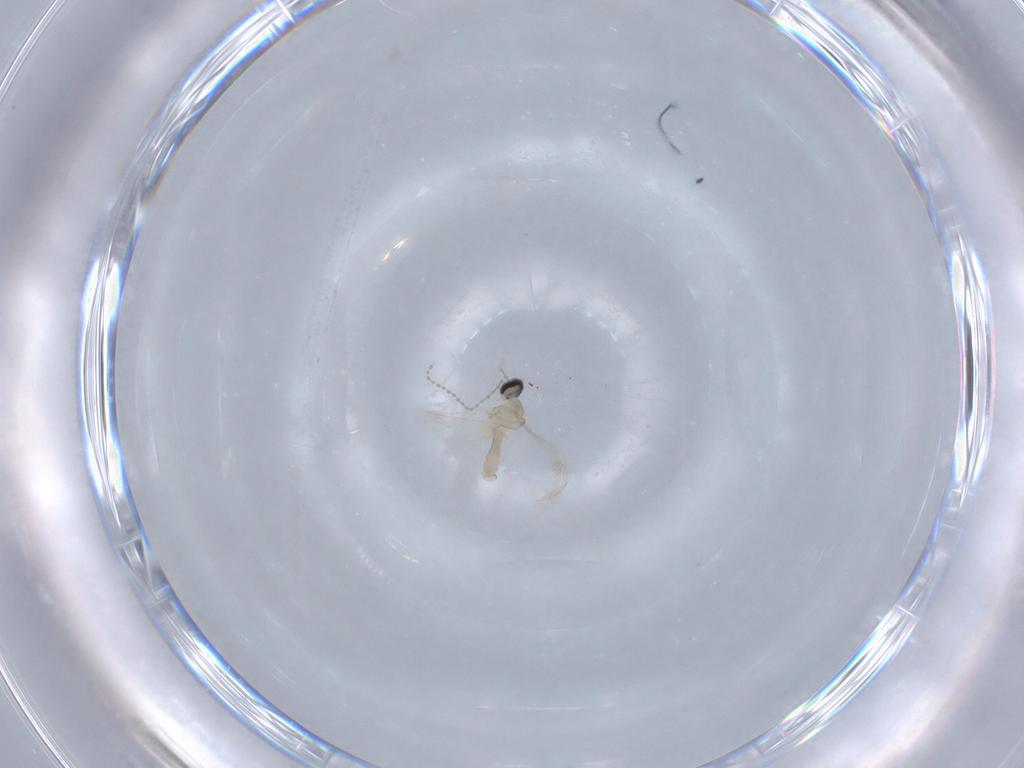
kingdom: Animalia
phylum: Arthropoda
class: Insecta
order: Diptera
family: Cecidomyiidae
